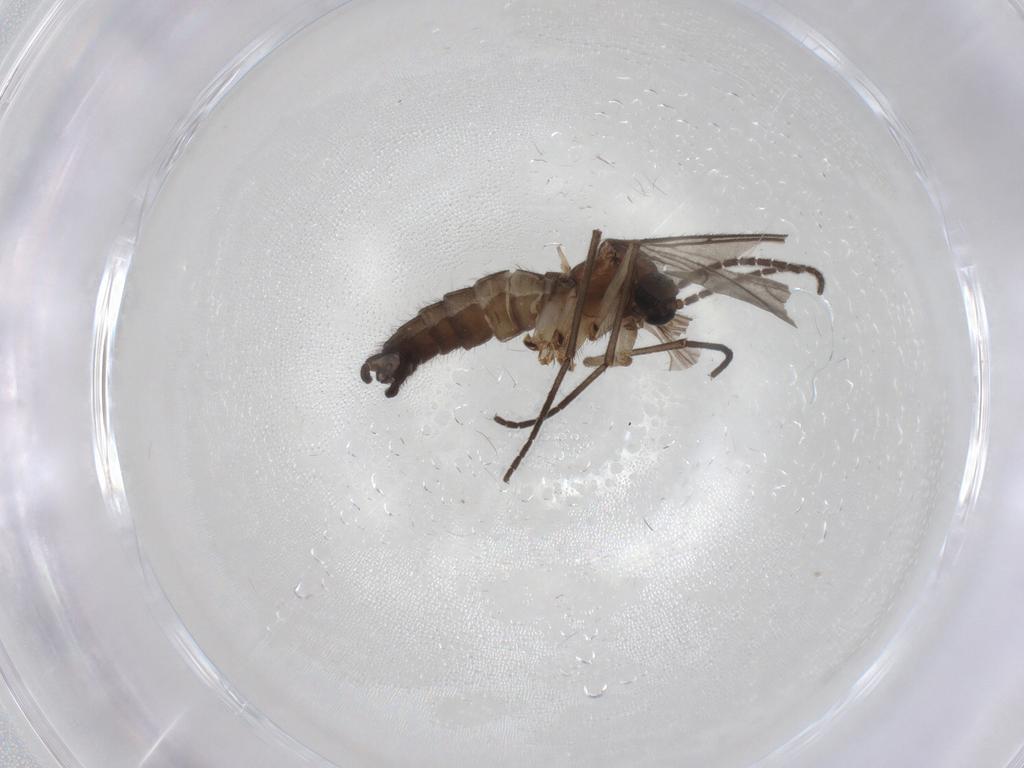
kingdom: Animalia
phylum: Arthropoda
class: Insecta
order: Diptera
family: Sciaridae
